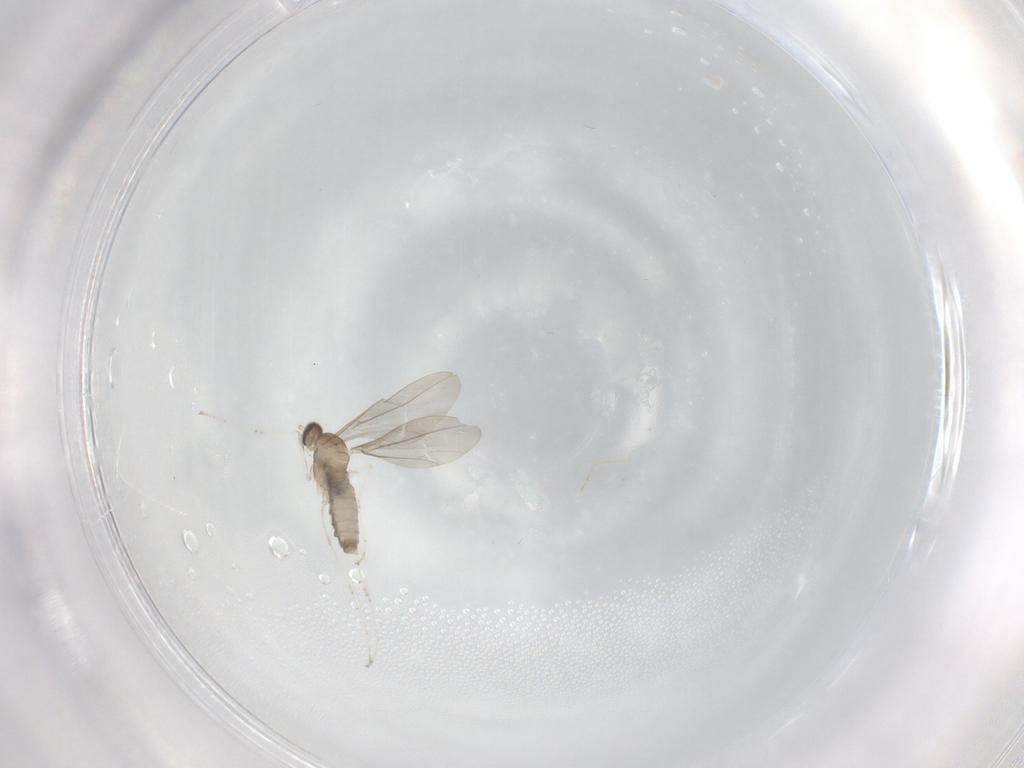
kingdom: Animalia
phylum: Arthropoda
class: Insecta
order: Diptera
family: Cecidomyiidae
